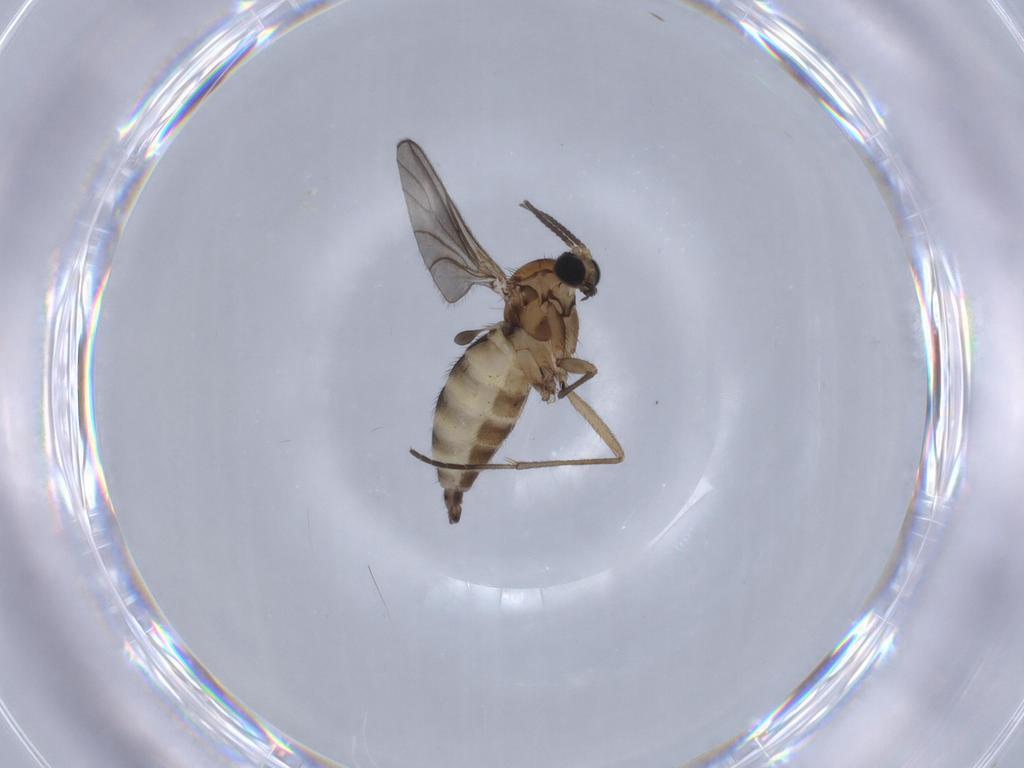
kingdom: Animalia
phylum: Arthropoda
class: Insecta
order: Diptera
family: Sciaridae
